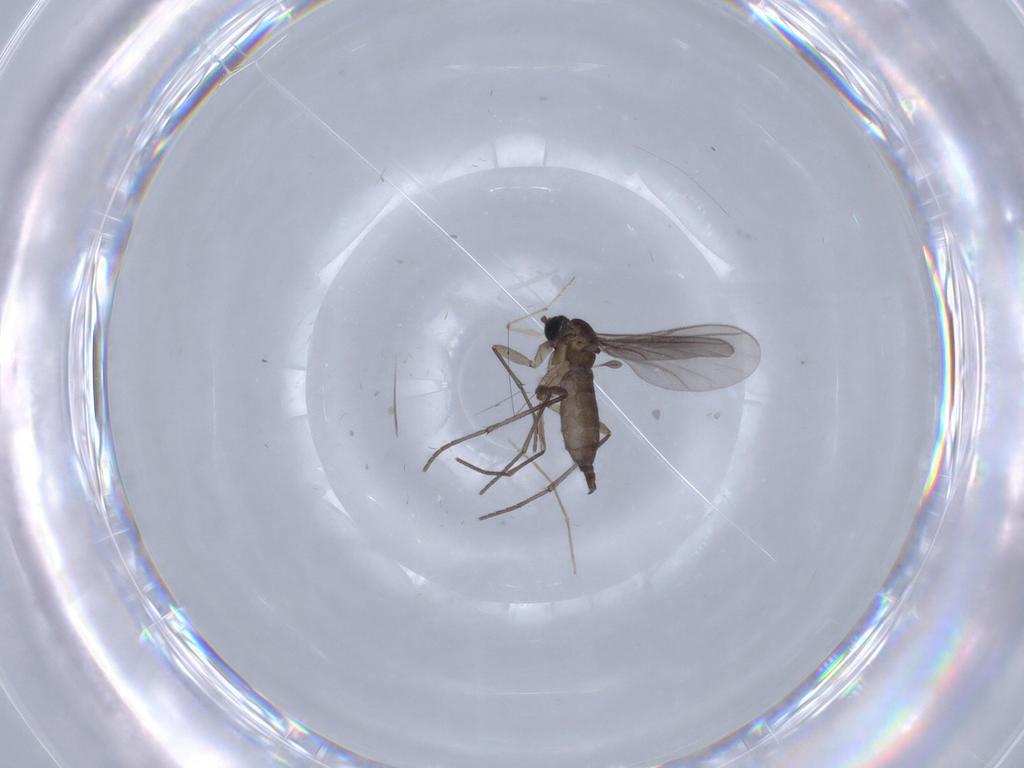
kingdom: Animalia
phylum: Arthropoda
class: Insecta
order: Diptera
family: Sciaridae
